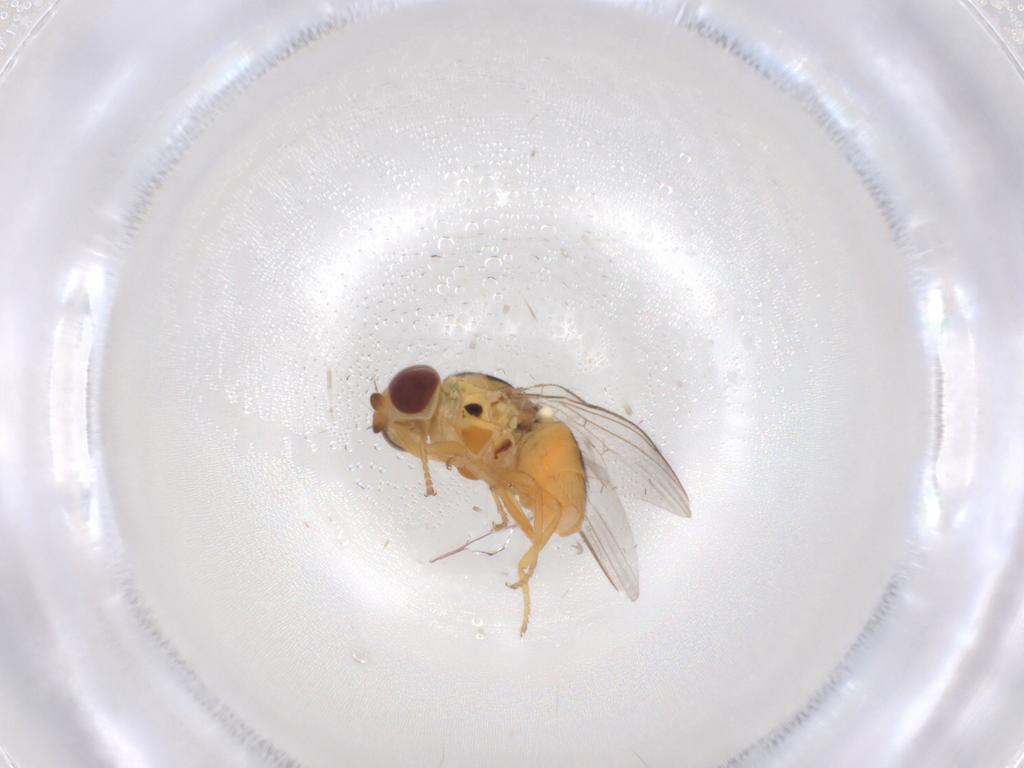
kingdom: Animalia
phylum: Arthropoda
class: Insecta
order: Diptera
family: Chloropidae
